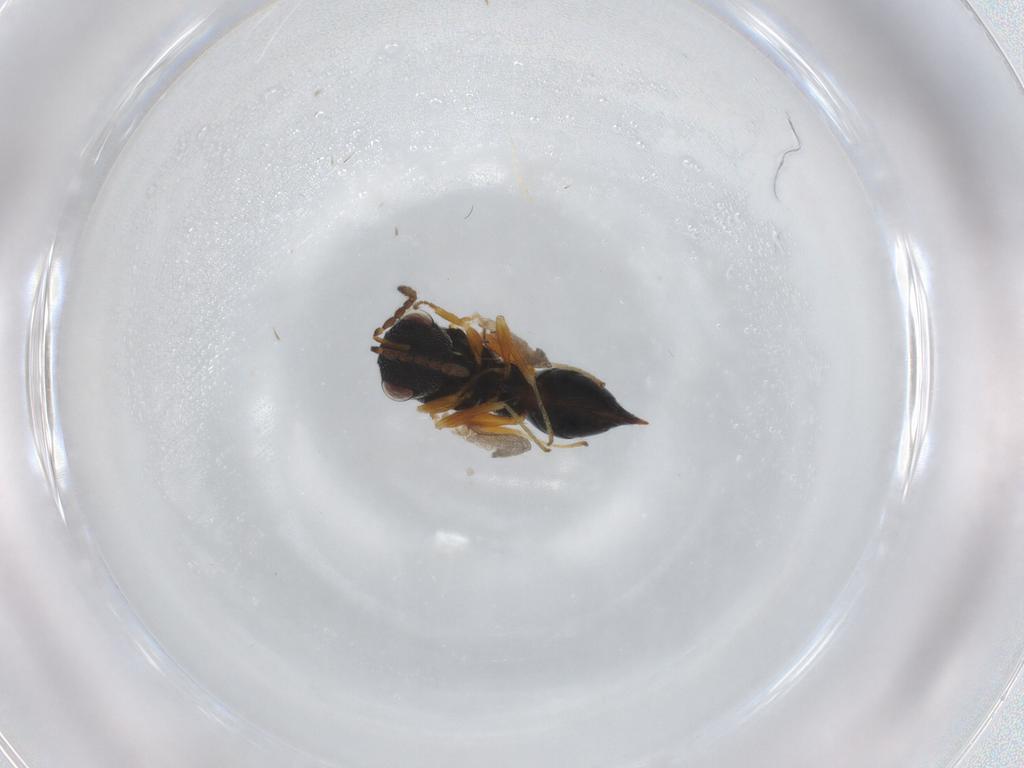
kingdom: Animalia
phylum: Arthropoda
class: Insecta
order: Hymenoptera
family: Eurytomidae
